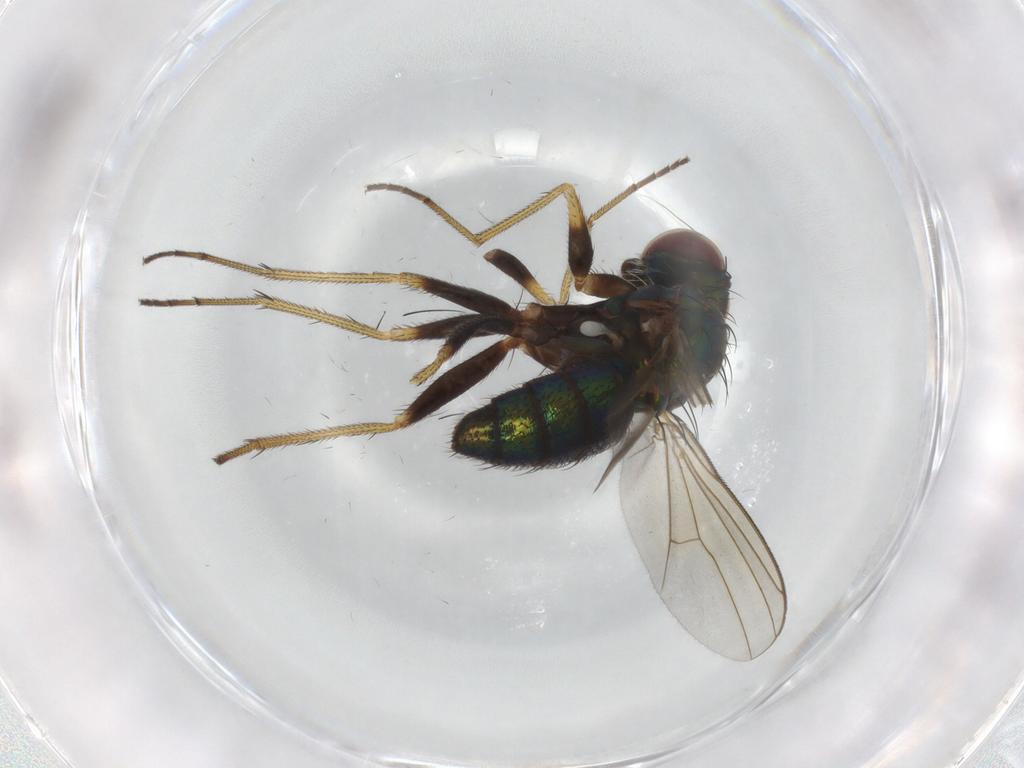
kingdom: Animalia
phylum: Arthropoda
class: Insecta
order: Diptera
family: Dolichopodidae
